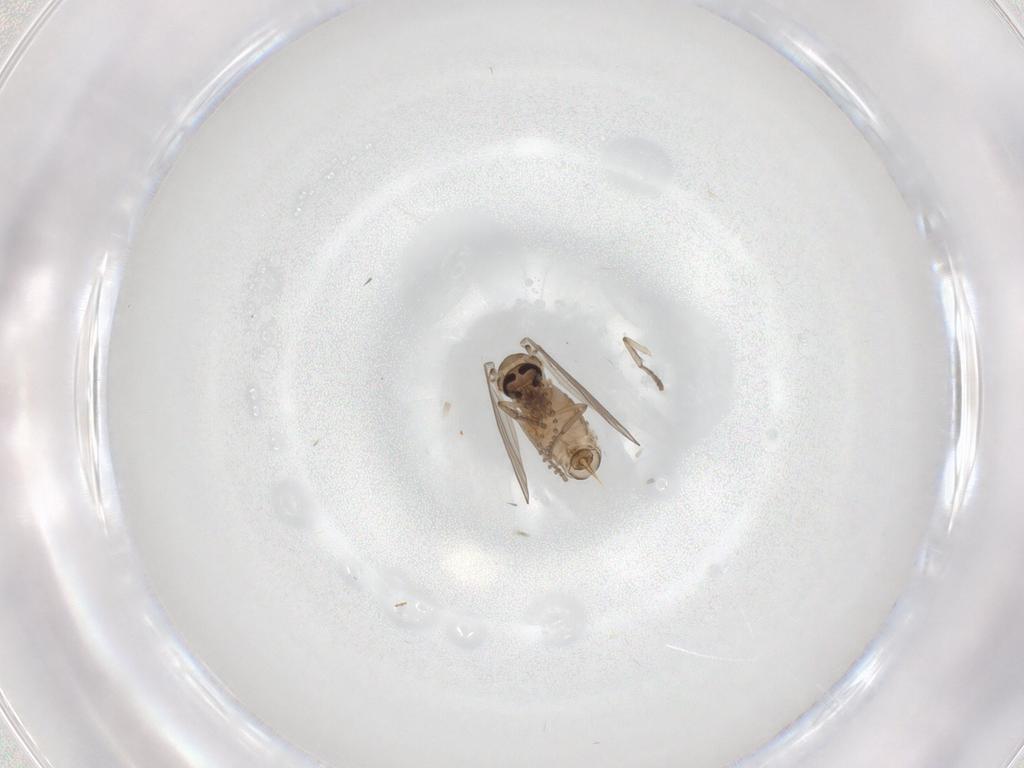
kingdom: Animalia
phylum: Arthropoda
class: Insecta
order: Diptera
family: Psychodidae
